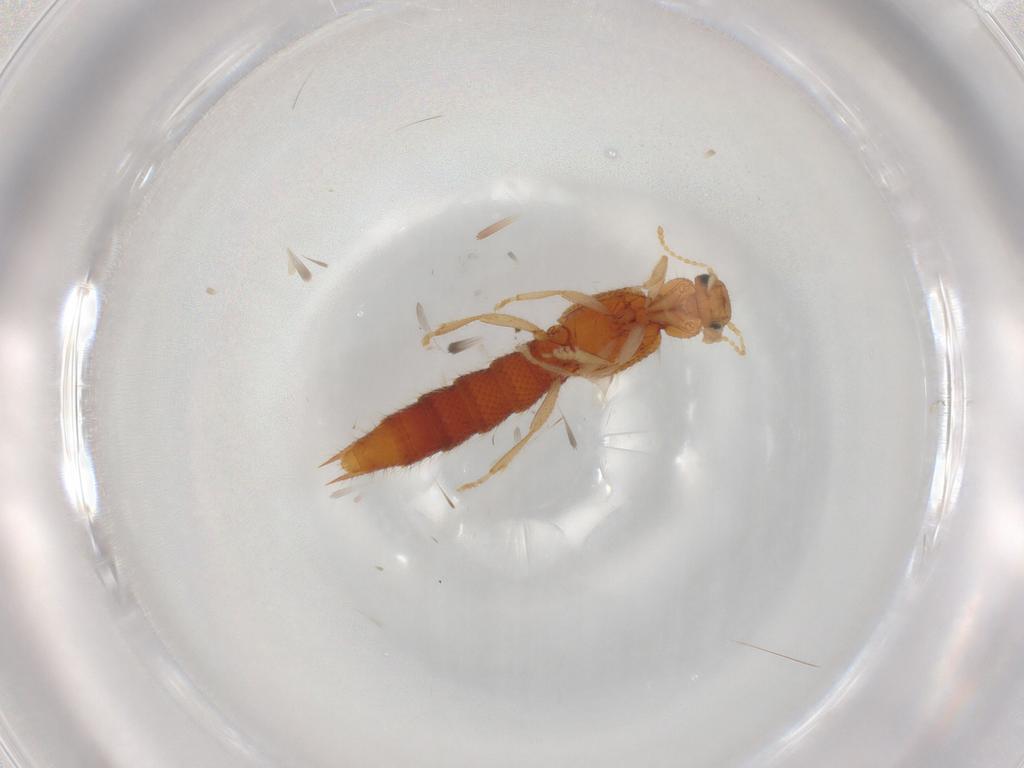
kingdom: Animalia
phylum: Arthropoda
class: Insecta
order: Coleoptera
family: Staphylinidae
